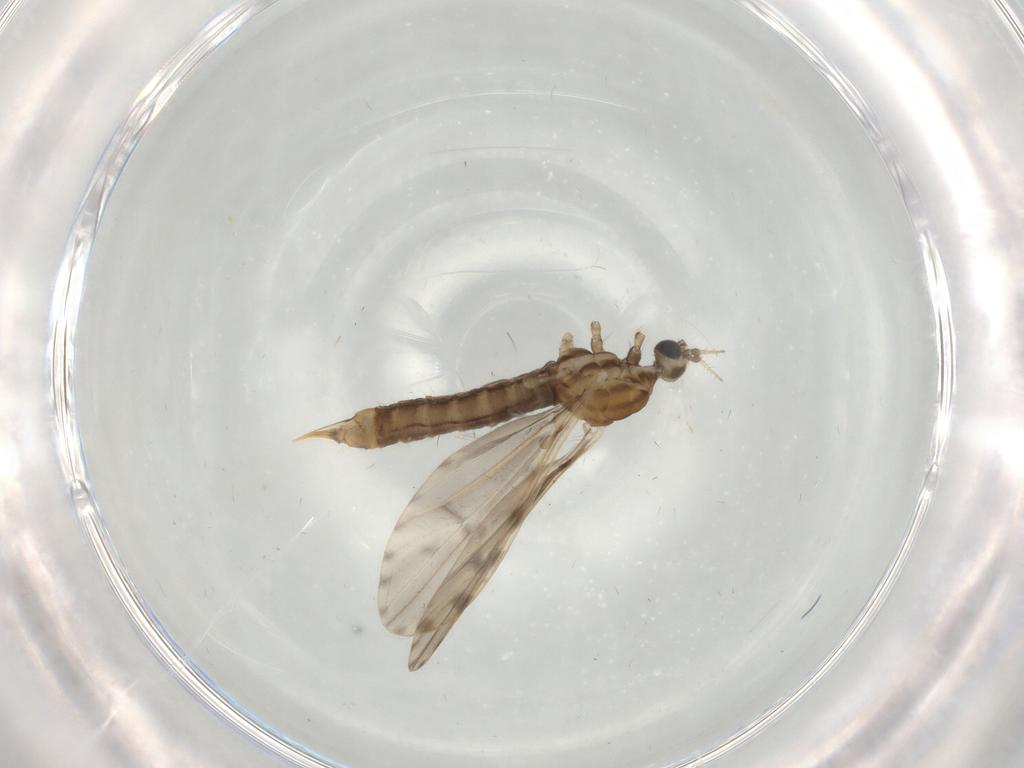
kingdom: Animalia
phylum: Arthropoda
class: Insecta
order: Diptera
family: Limoniidae
